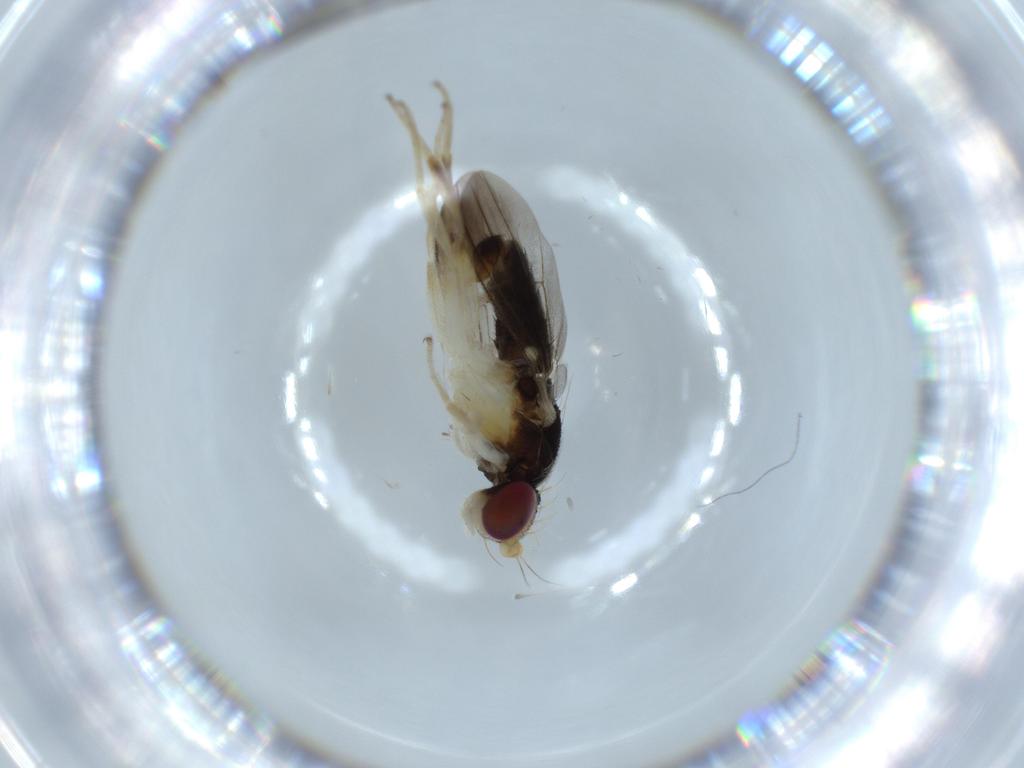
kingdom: Animalia
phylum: Arthropoda
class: Insecta
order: Diptera
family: Clusiidae
